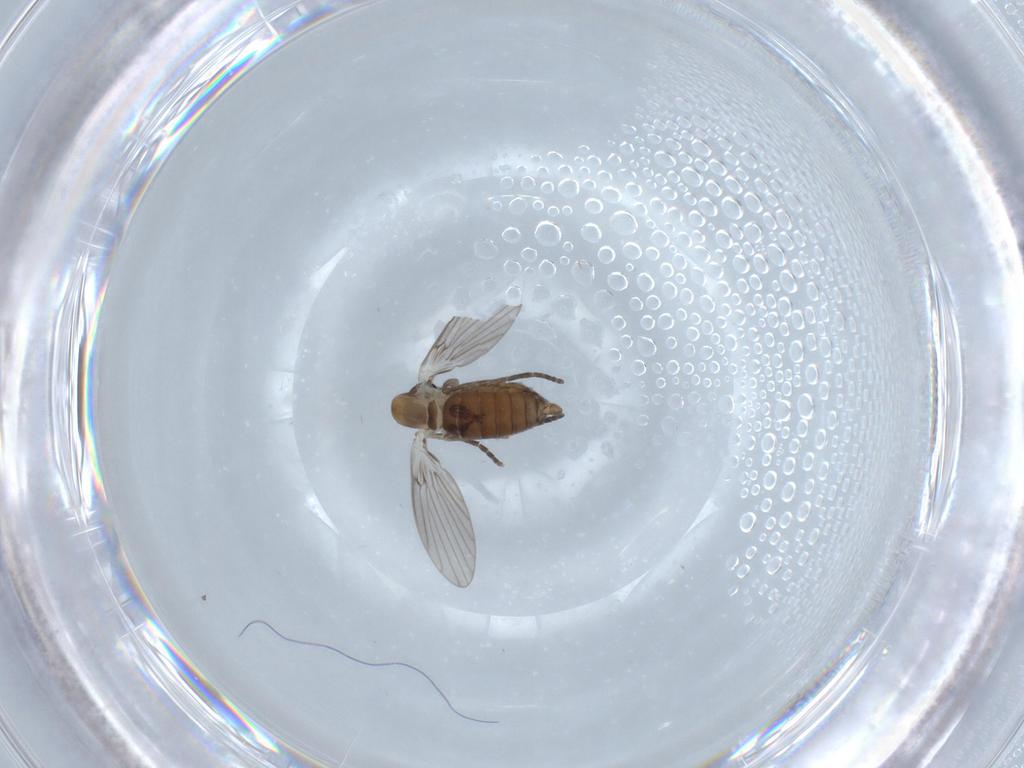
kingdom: Animalia
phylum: Arthropoda
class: Insecta
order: Diptera
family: Psychodidae
